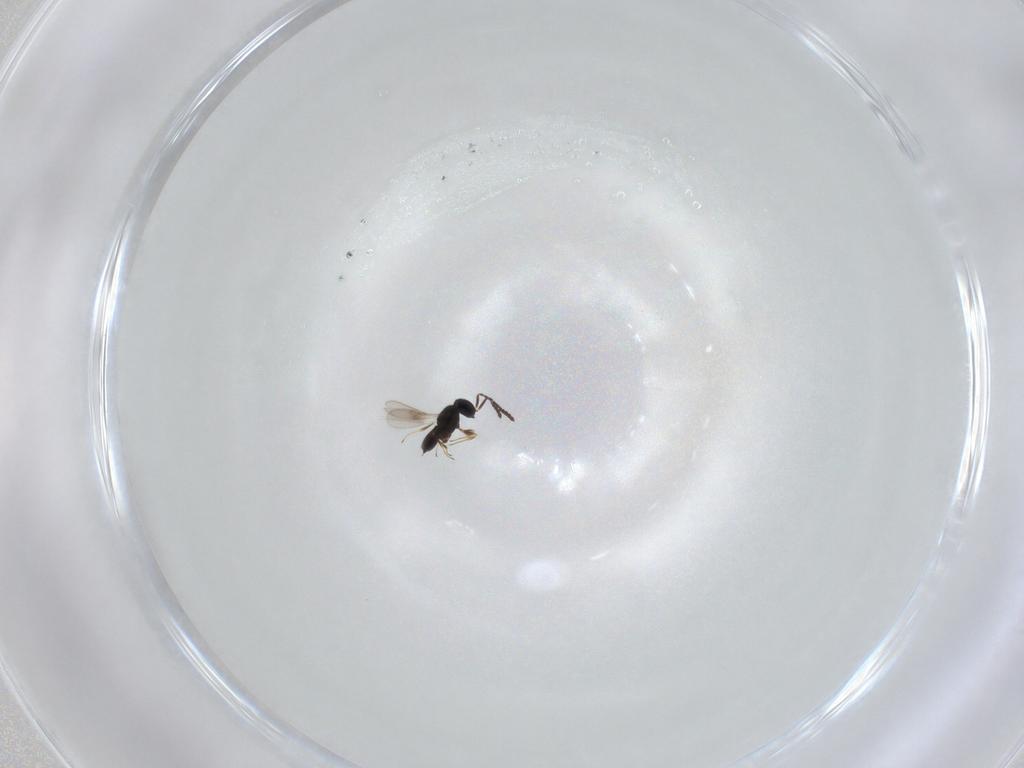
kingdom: Animalia
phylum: Arthropoda
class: Insecta
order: Hymenoptera
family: Scelionidae
